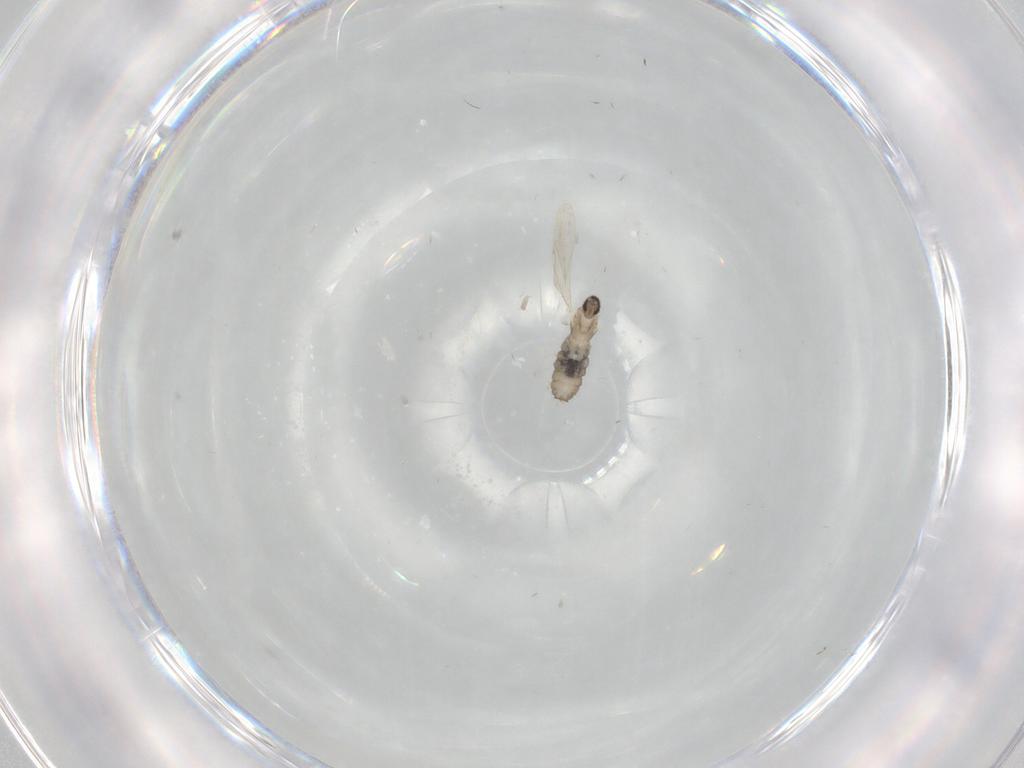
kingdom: Animalia
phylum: Arthropoda
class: Insecta
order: Diptera
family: Cecidomyiidae
